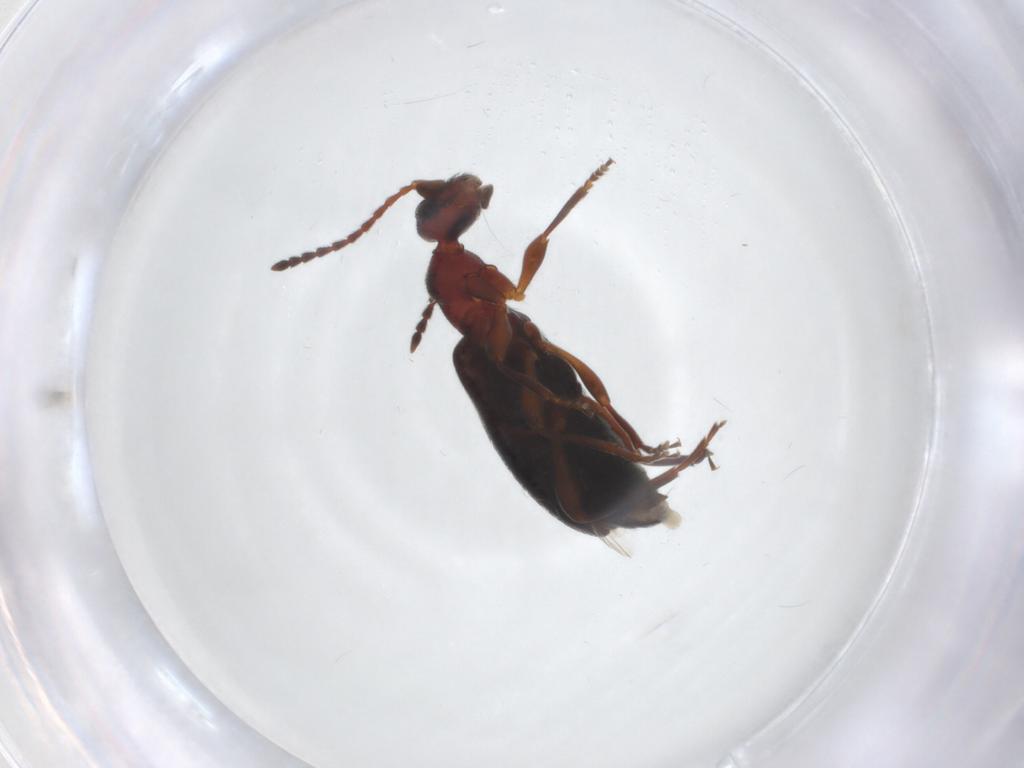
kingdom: Animalia
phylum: Arthropoda
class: Insecta
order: Coleoptera
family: Anthicidae
